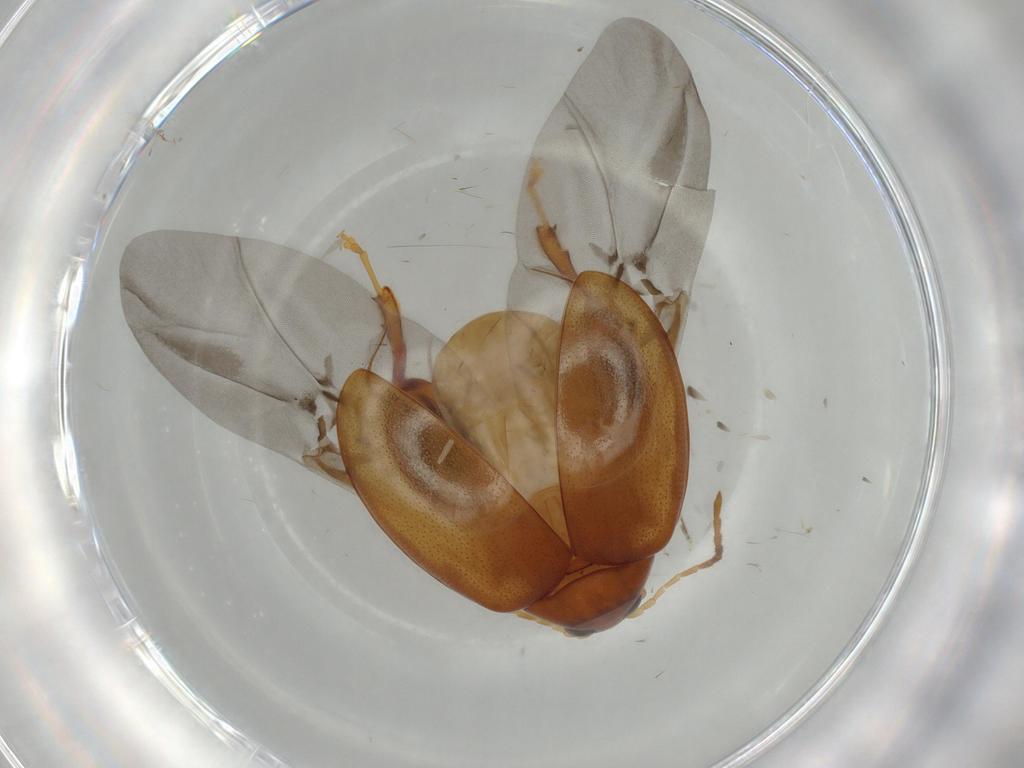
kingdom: Animalia
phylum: Arthropoda
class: Insecta
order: Coleoptera
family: Chrysomelidae
